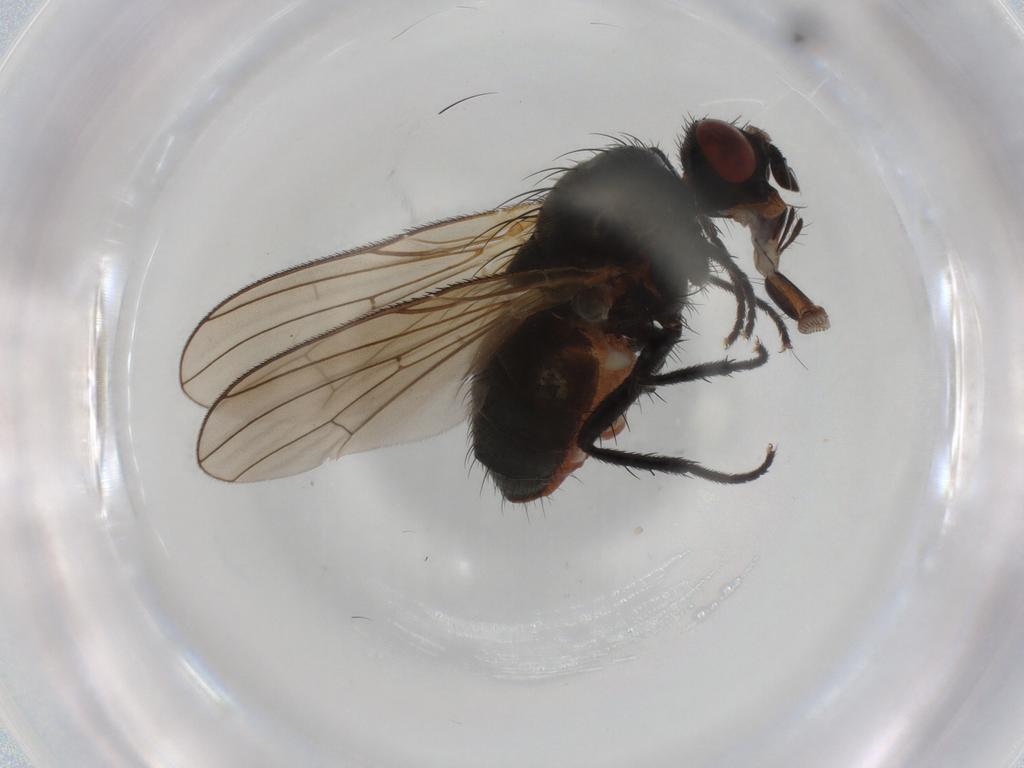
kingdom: Animalia
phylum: Arthropoda
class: Insecta
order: Diptera
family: Anthomyiidae
